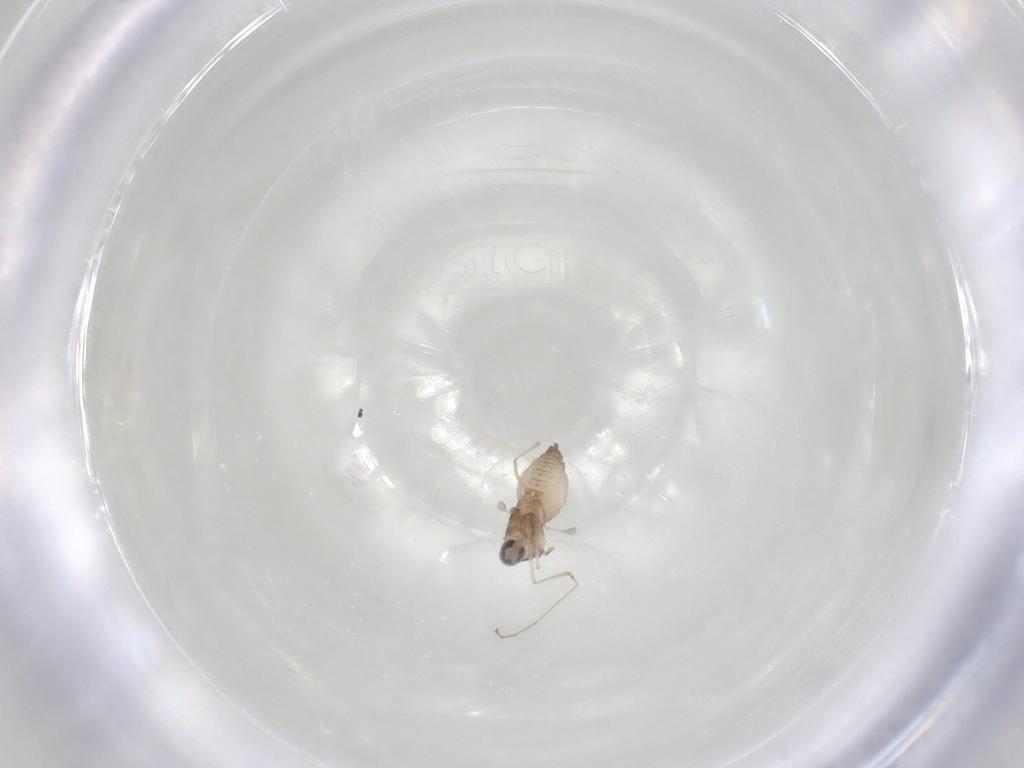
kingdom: Animalia
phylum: Arthropoda
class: Insecta
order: Diptera
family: Cecidomyiidae
